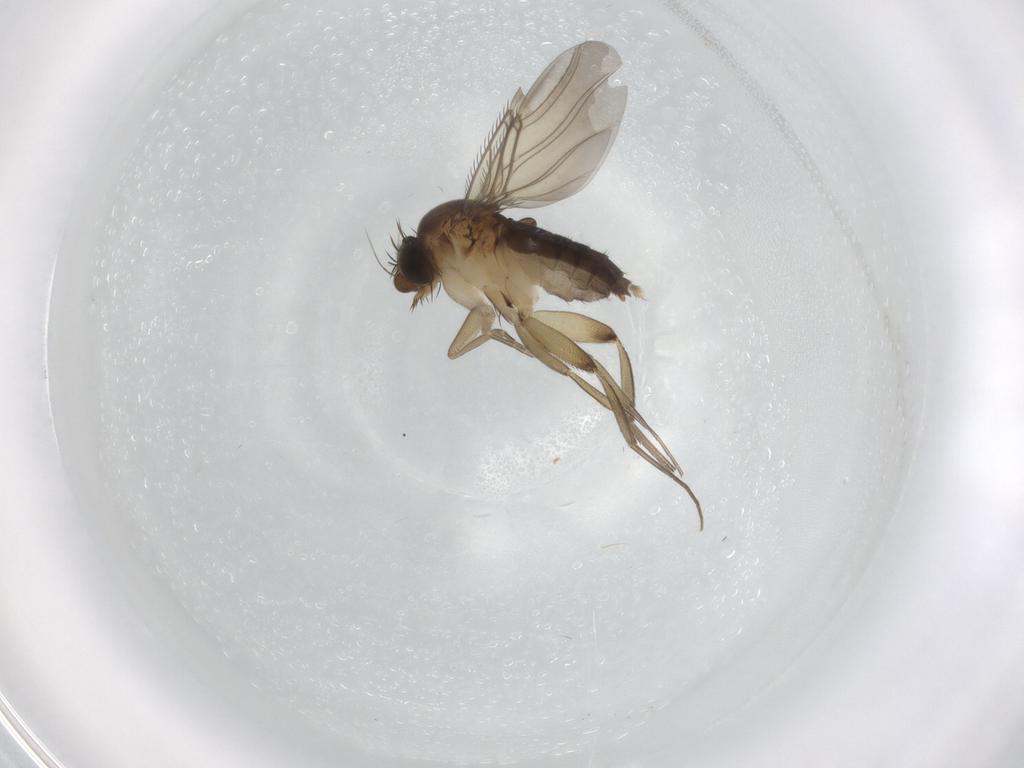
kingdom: Animalia
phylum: Arthropoda
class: Insecta
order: Diptera
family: Phoridae
